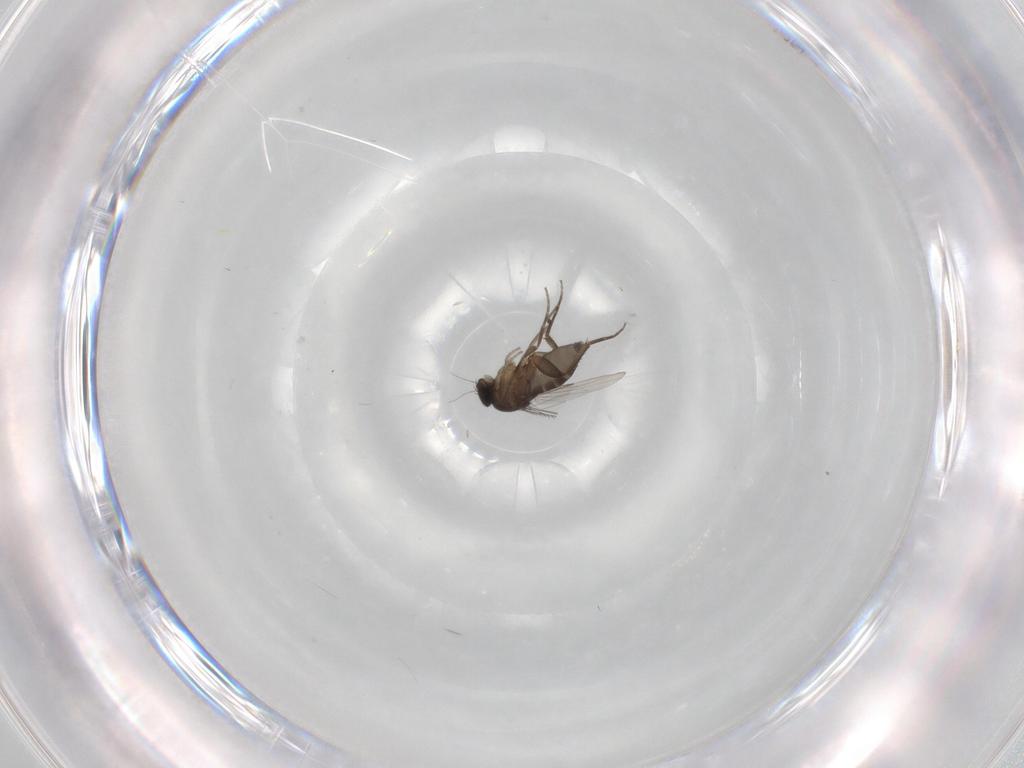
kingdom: Animalia
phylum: Arthropoda
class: Insecta
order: Diptera
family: Phoridae
